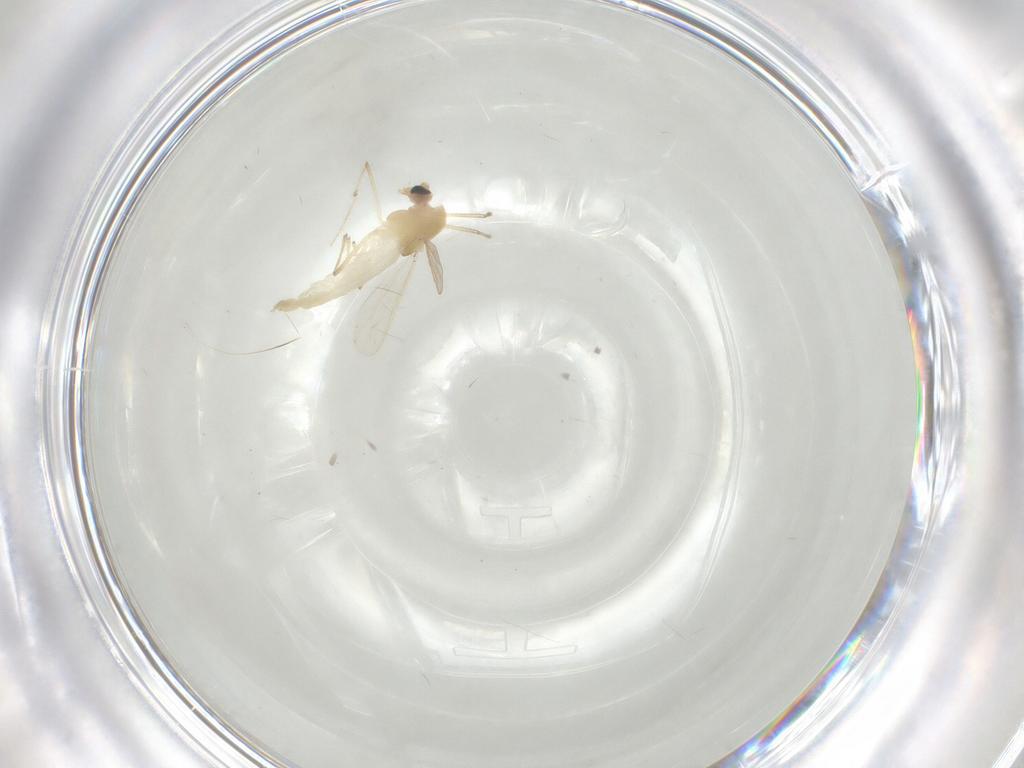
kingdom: Animalia
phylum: Arthropoda
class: Insecta
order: Diptera
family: Chironomidae
